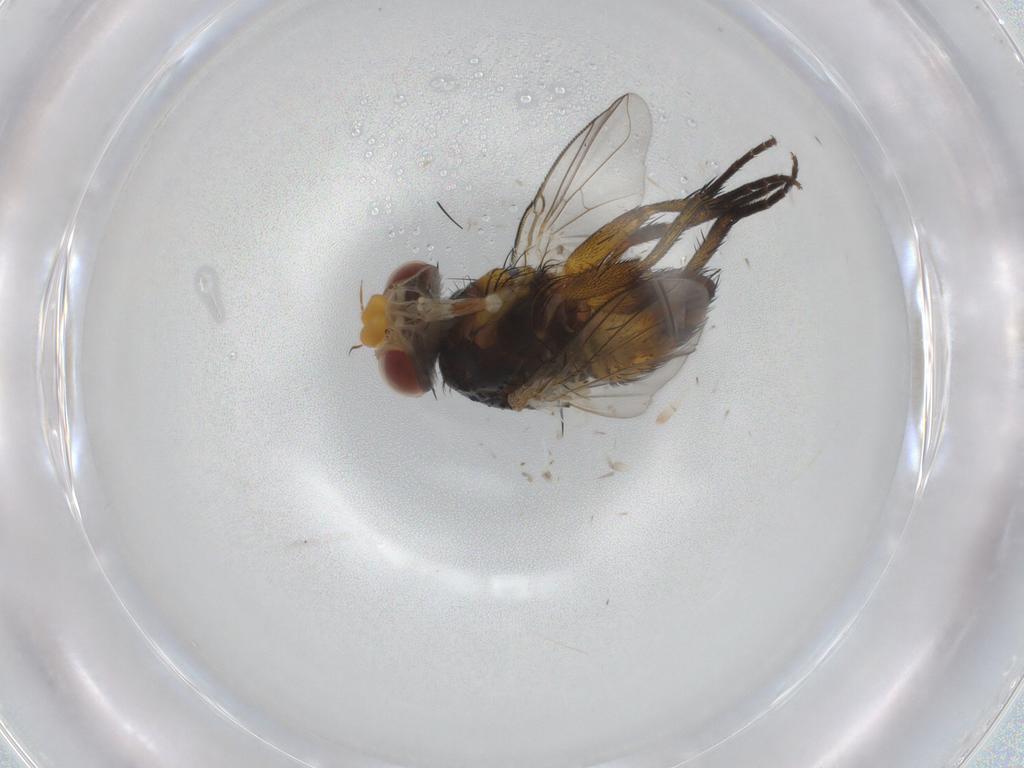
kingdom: Animalia
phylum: Arthropoda
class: Insecta
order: Diptera
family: Tachinidae
